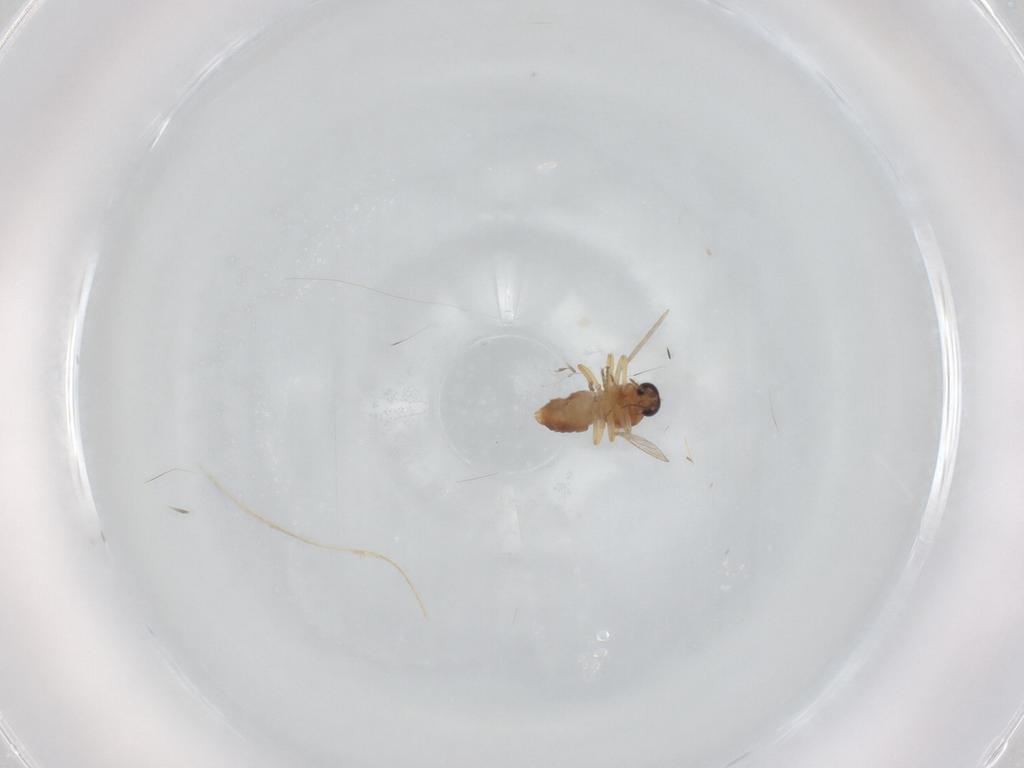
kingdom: Animalia
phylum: Arthropoda
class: Insecta
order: Diptera
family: Ceratopogonidae
